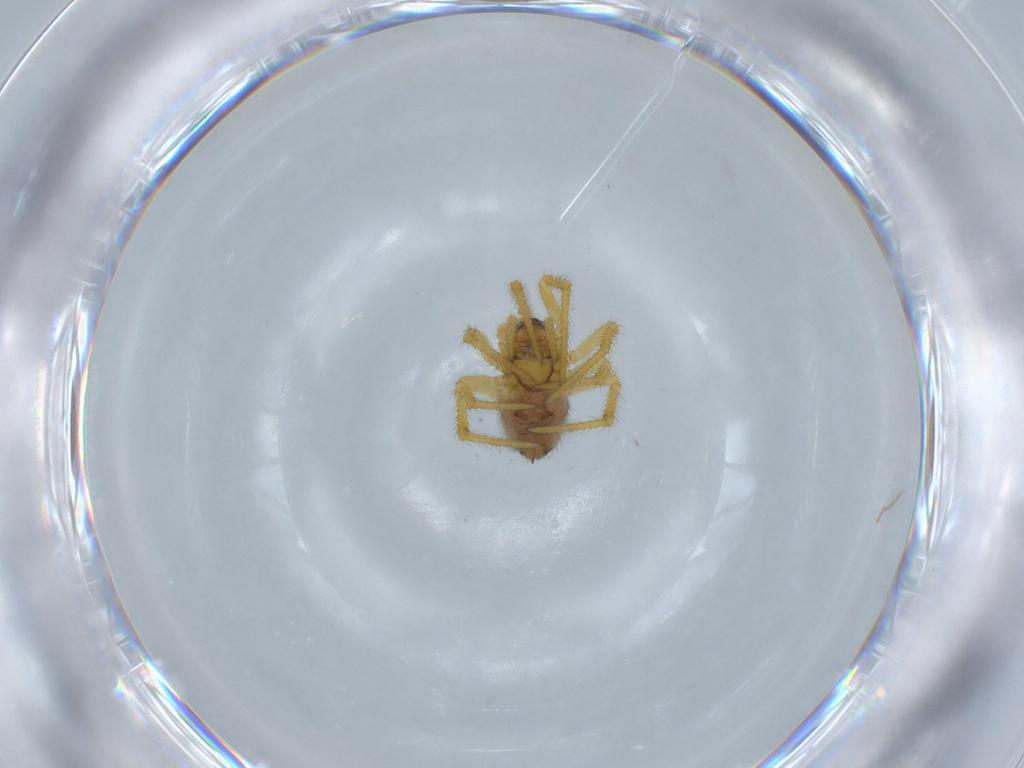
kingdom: Animalia
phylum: Arthropoda
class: Arachnida
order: Araneae
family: Theridiidae
